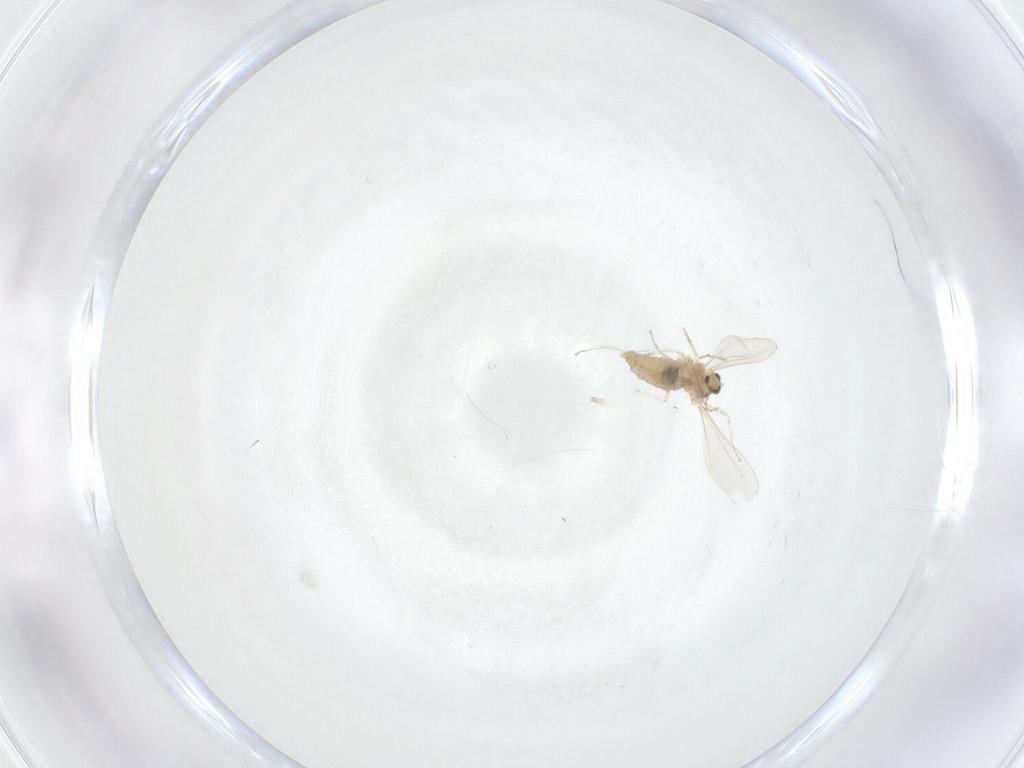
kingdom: Animalia
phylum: Arthropoda
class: Insecta
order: Diptera
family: Cecidomyiidae
